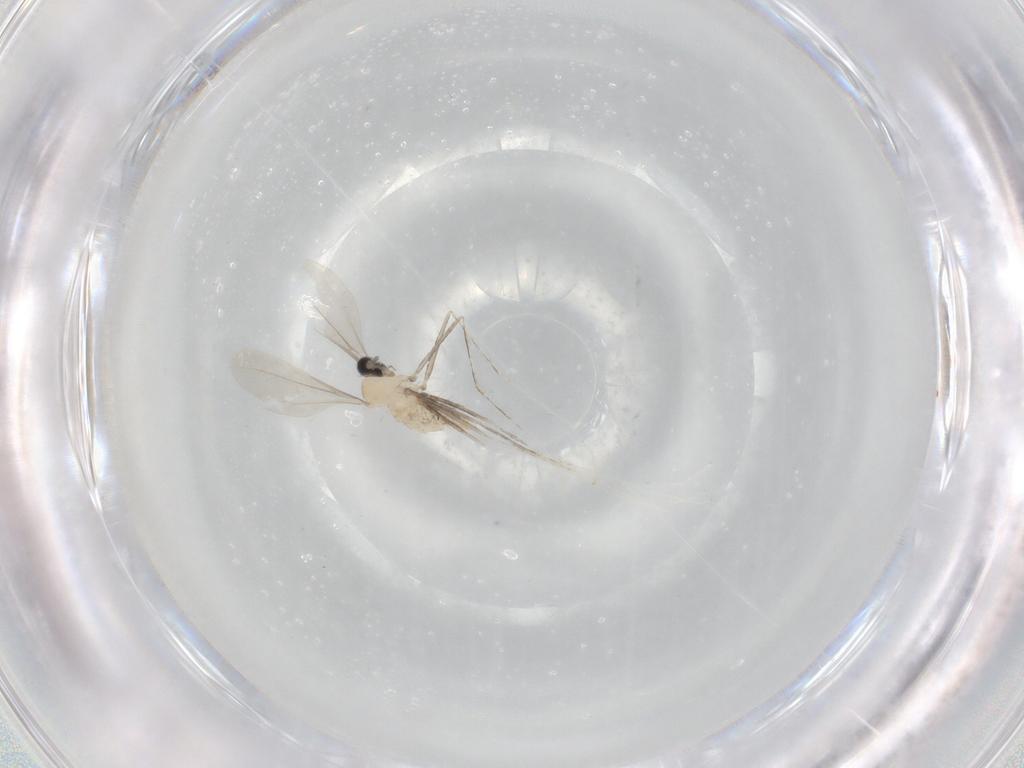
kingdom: Animalia
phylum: Arthropoda
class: Insecta
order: Diptera
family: Cecidomyiidae
